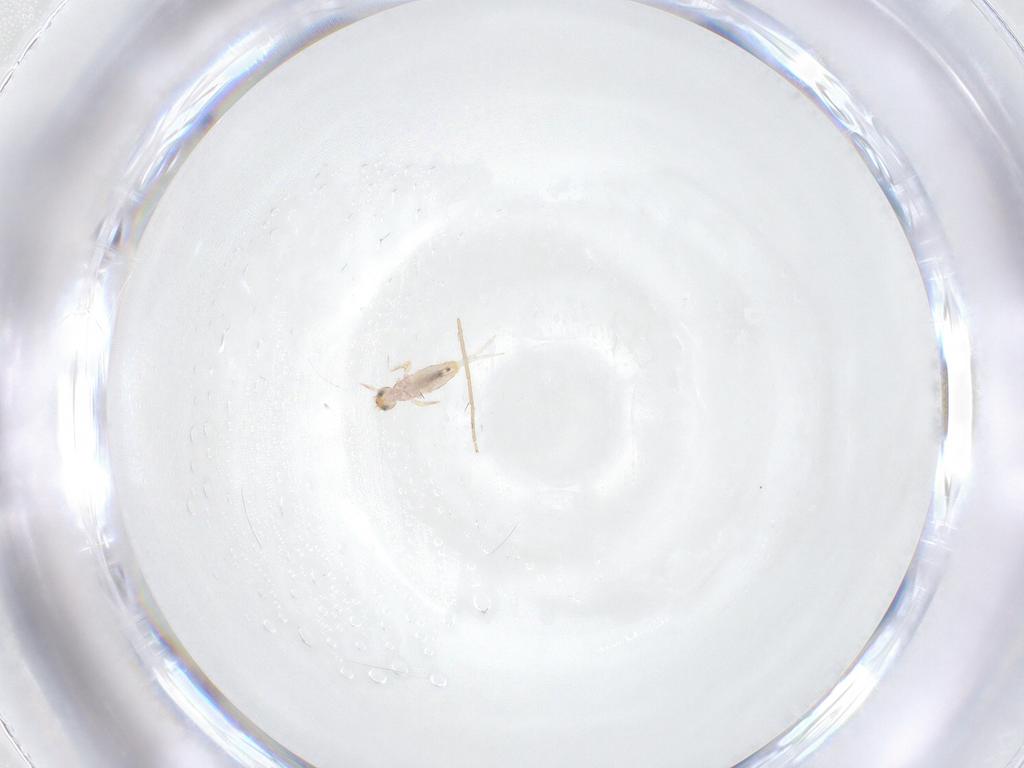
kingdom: Animalia
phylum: Arthropoda
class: Collembola
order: Entomobryomorpha
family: Entomobryidae
